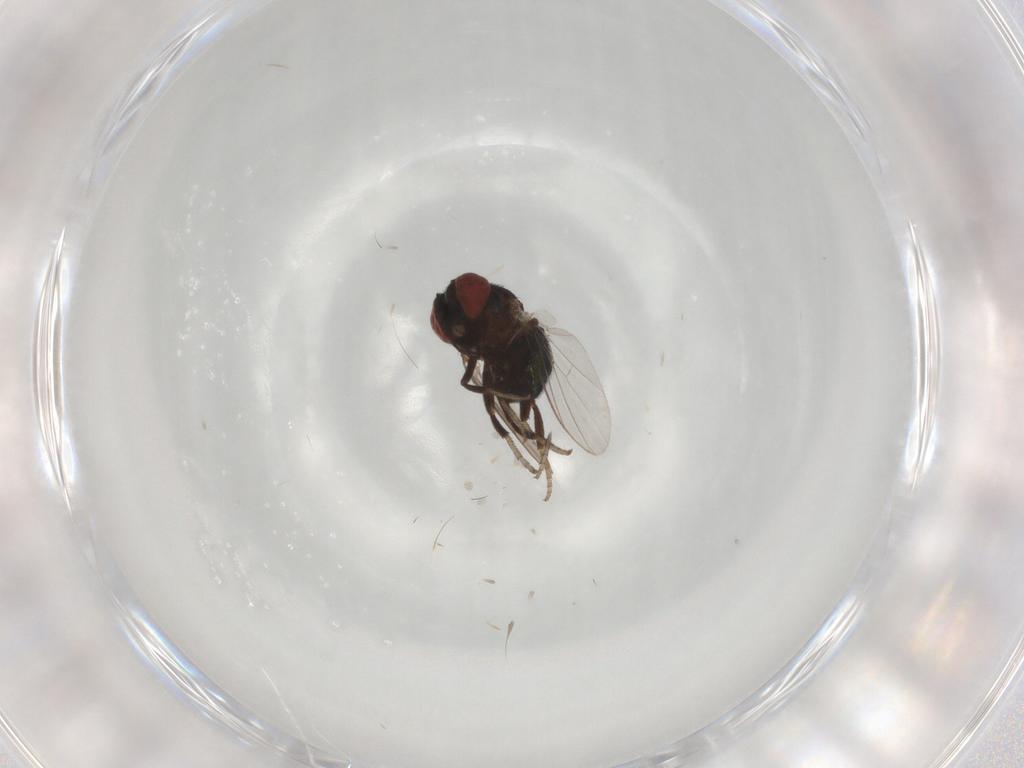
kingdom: Animalia
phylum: Arthropoda
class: Insecta
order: Diptera
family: Cryptochetidae
